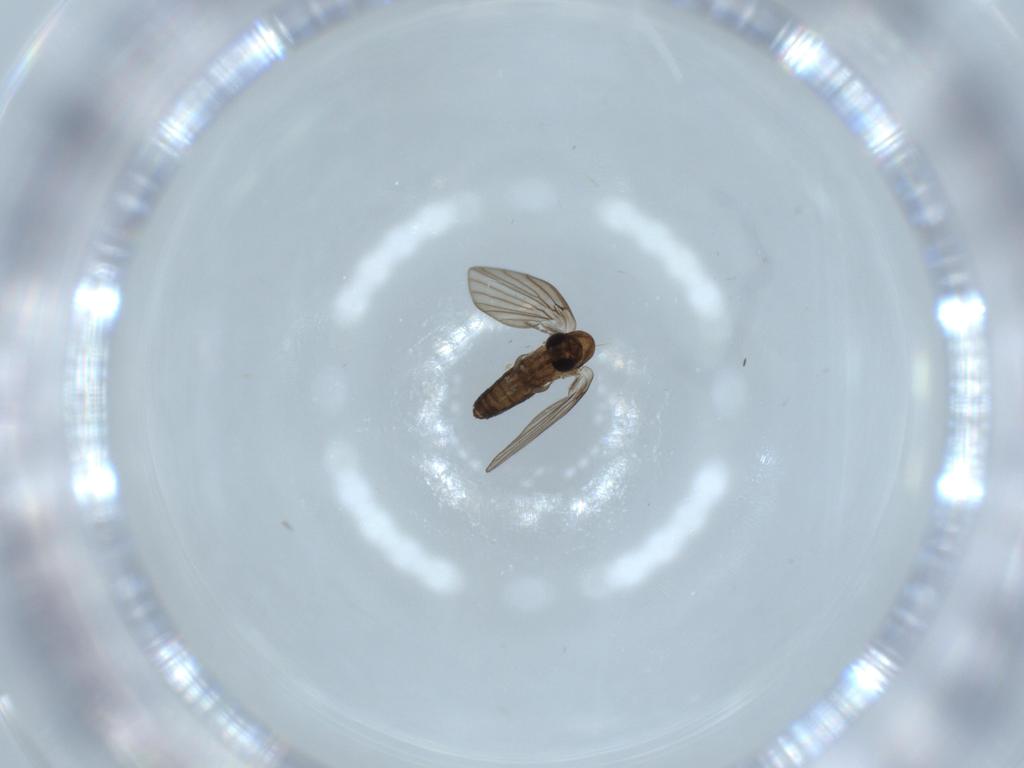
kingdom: Animalia
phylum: Arthropoda
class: Insecta
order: Diptera
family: Psychodidae
